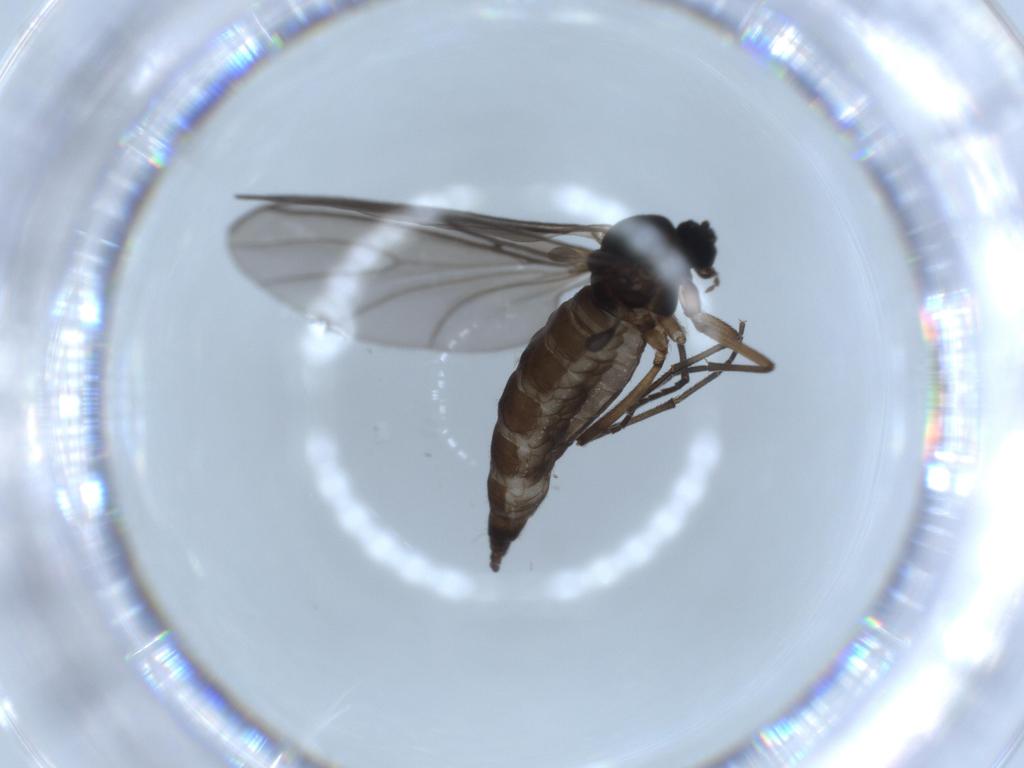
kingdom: Animalia
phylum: Arthropoda
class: Insecta
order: Diptera
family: Sciaridae
